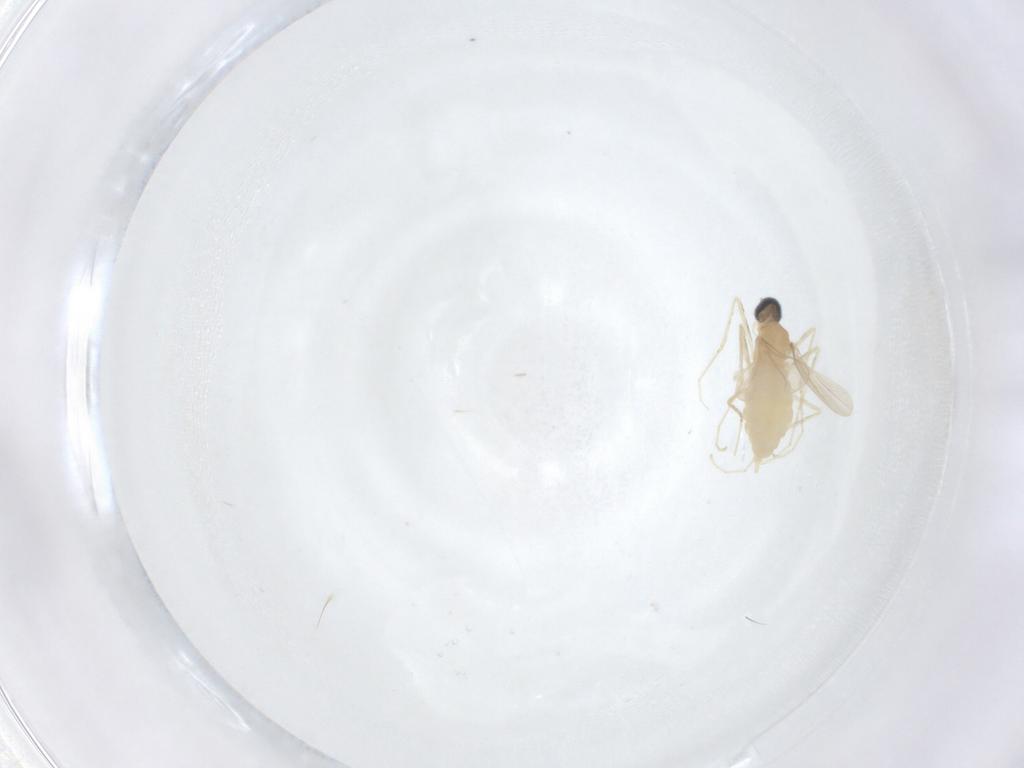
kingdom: Animalia
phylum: Arthropoda
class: Insecta
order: Diptera
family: Cecidomyiidae
